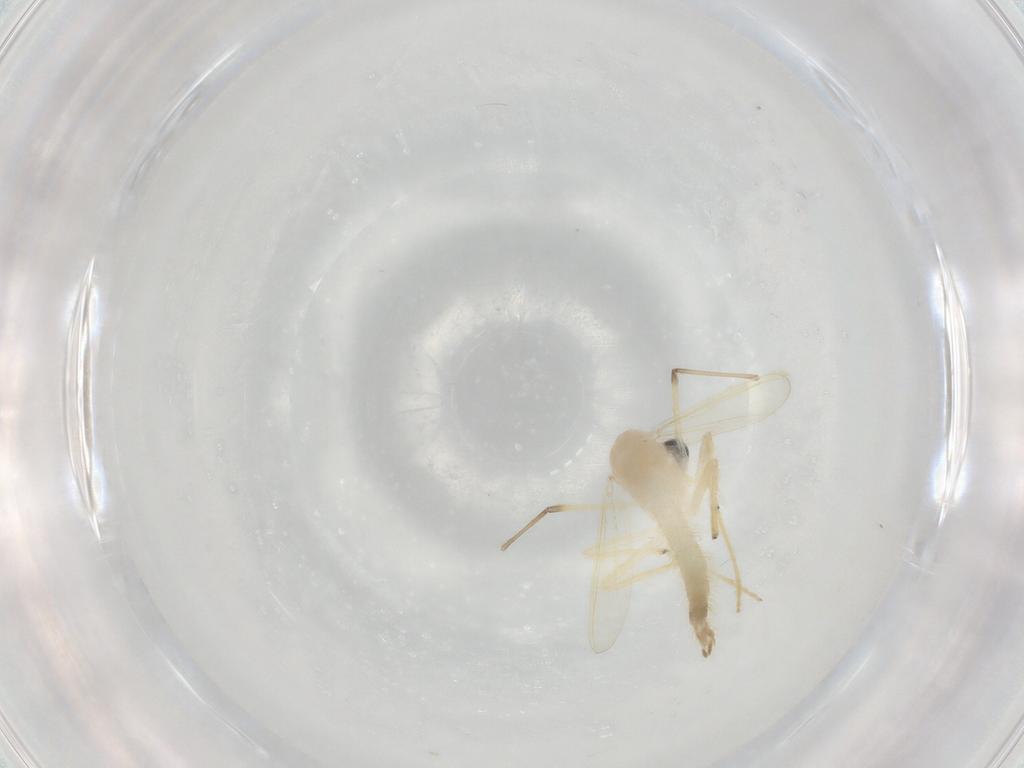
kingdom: Animalia
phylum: Arthropoda
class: Insecta
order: Diptera
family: Chironomidae
